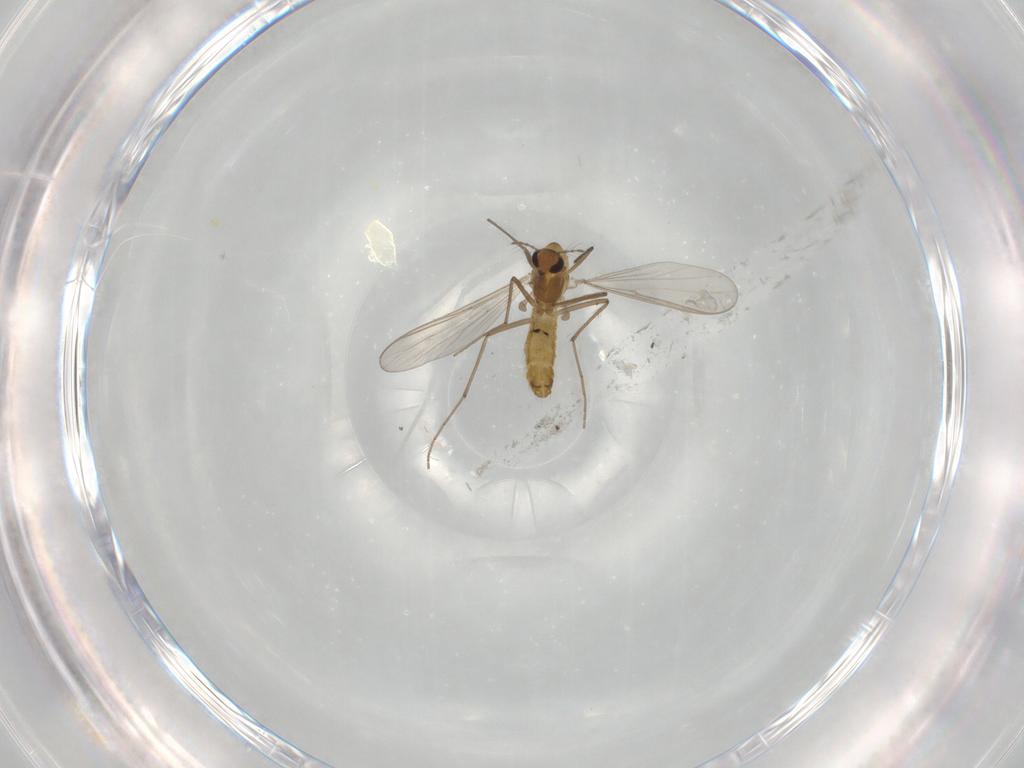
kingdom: Animalia
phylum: Arthropoda
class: Insecta
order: Diptera
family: Chironomidae
